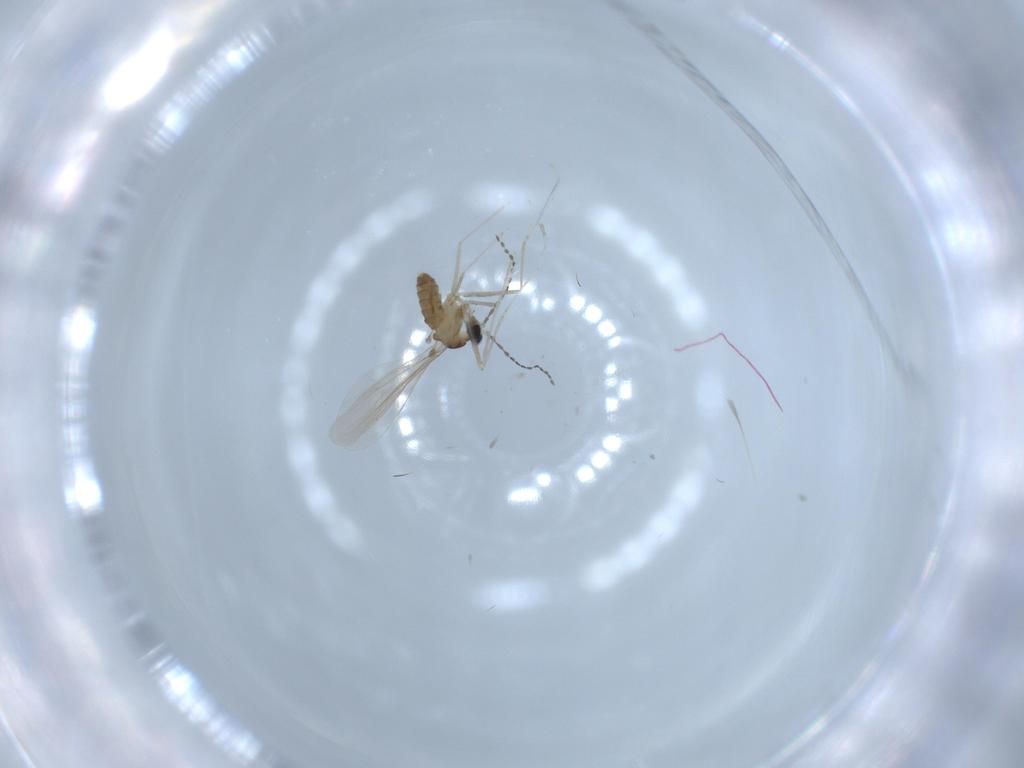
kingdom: Animalia
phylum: Arthropoda
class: Insecta
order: Diptera
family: Cecidomyiidae
